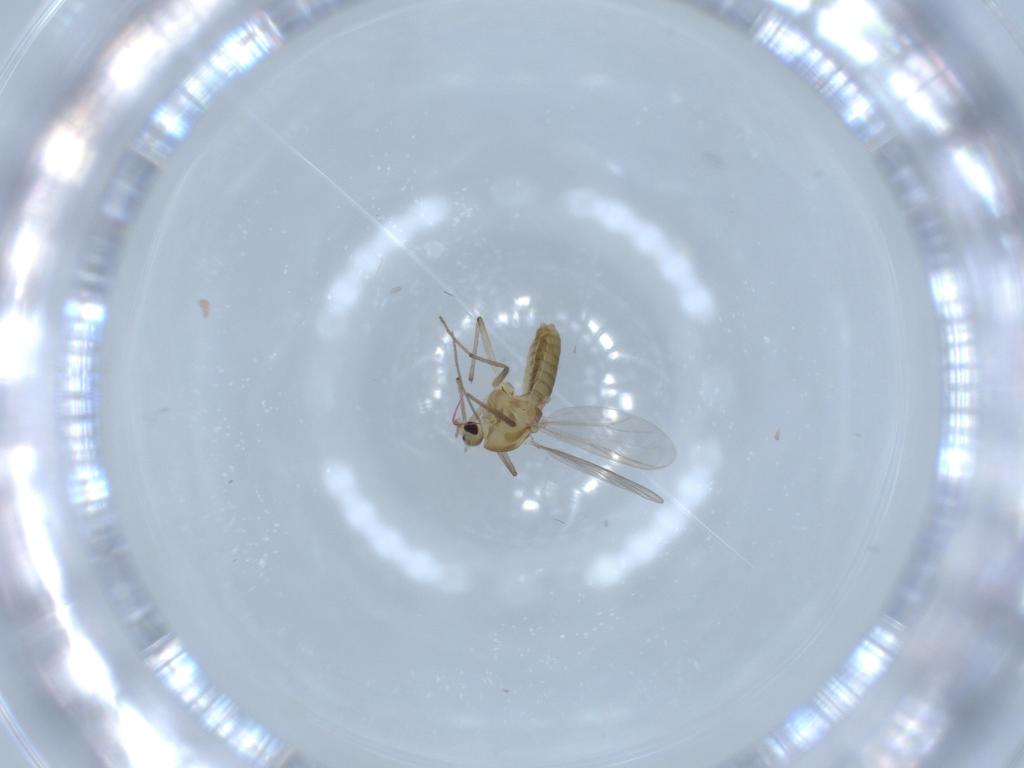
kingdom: Animalia
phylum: Arthropoda
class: Insecta
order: Diptera
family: Chironomidae
